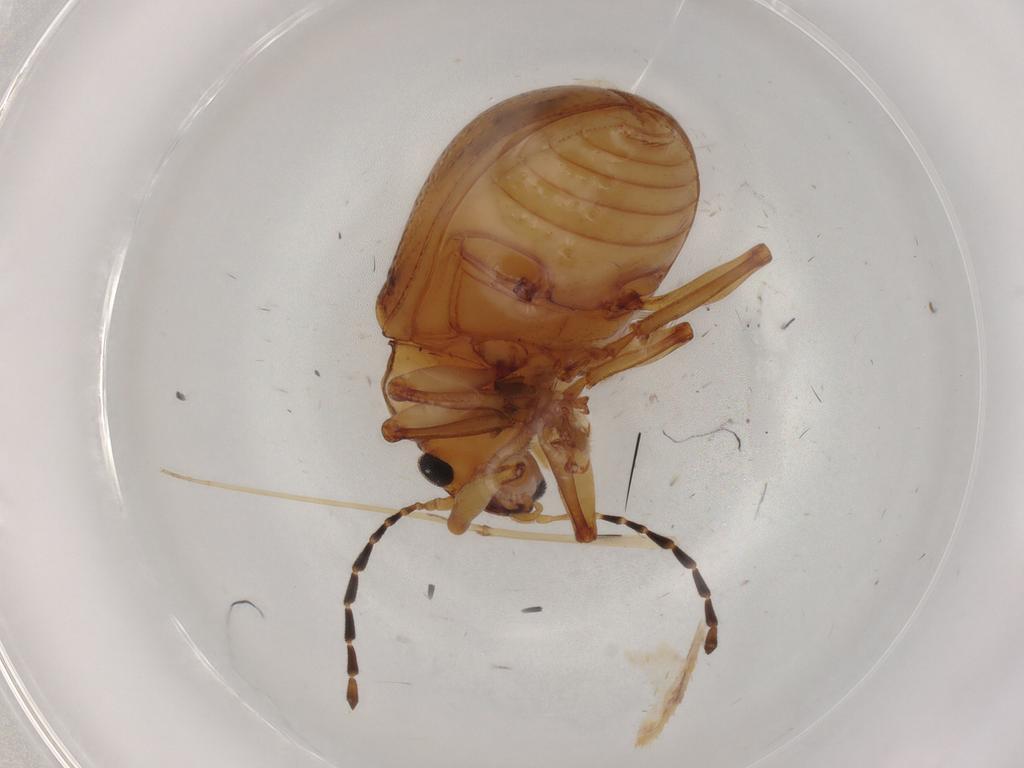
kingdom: Animalia
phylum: Arthropoda
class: Insecta
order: Coleoptera
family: Chrysomelidae
